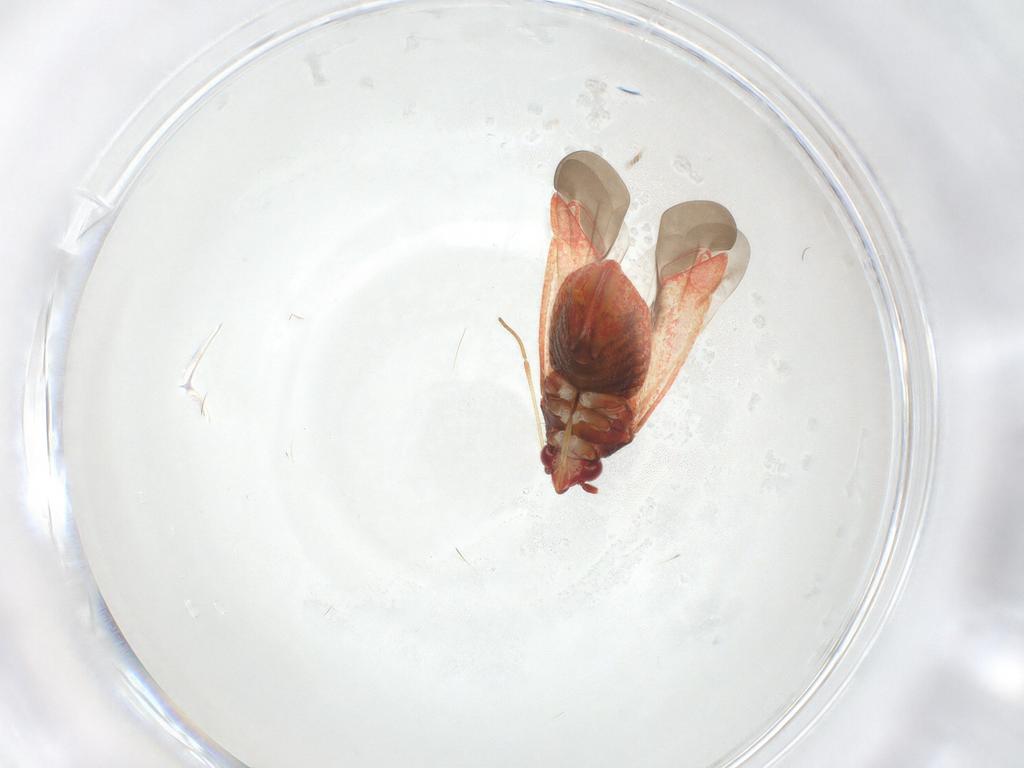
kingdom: Animalia
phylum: Arthropoda
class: Insecta
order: Hemiptera
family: Miridae
